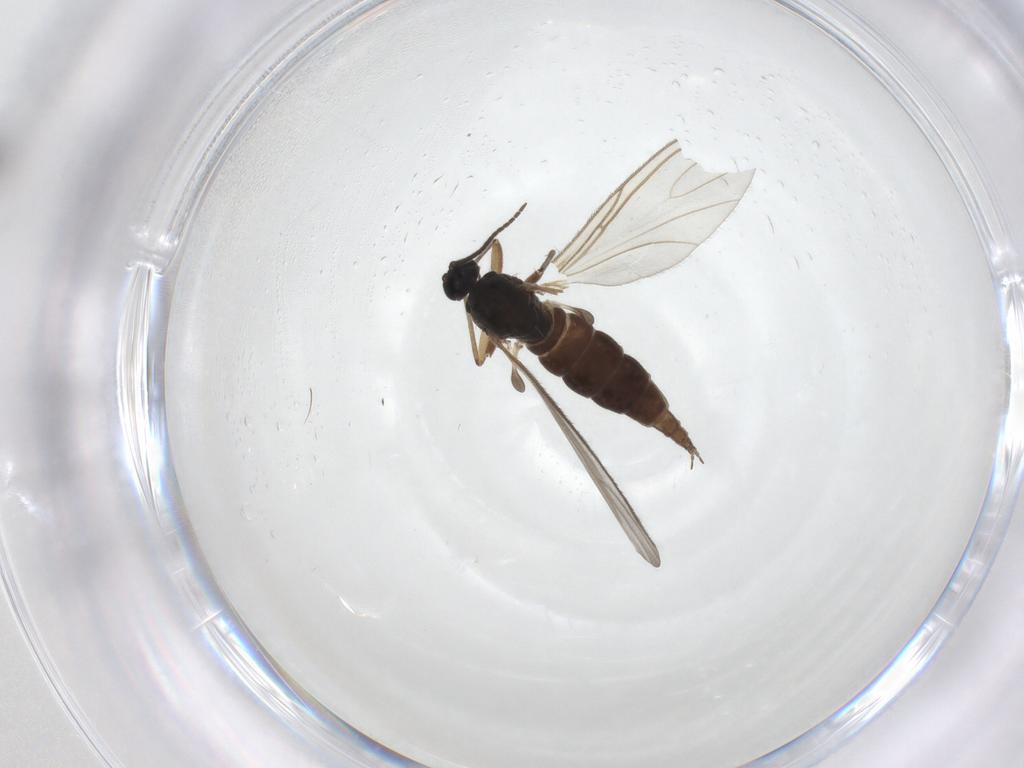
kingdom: Animalia
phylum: Arthropoda
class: Insecta
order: Diptera
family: Sciaridae
